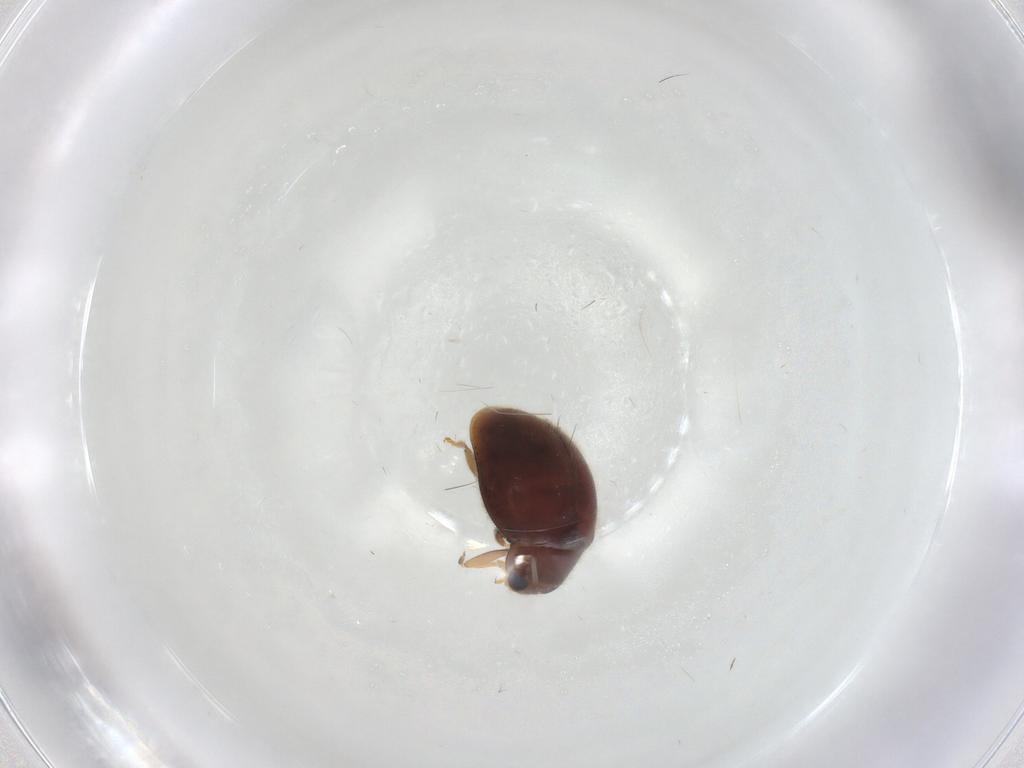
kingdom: Animalia
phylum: Arthropoda
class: Insecta
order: Coleoptera
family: Coccinellidae
